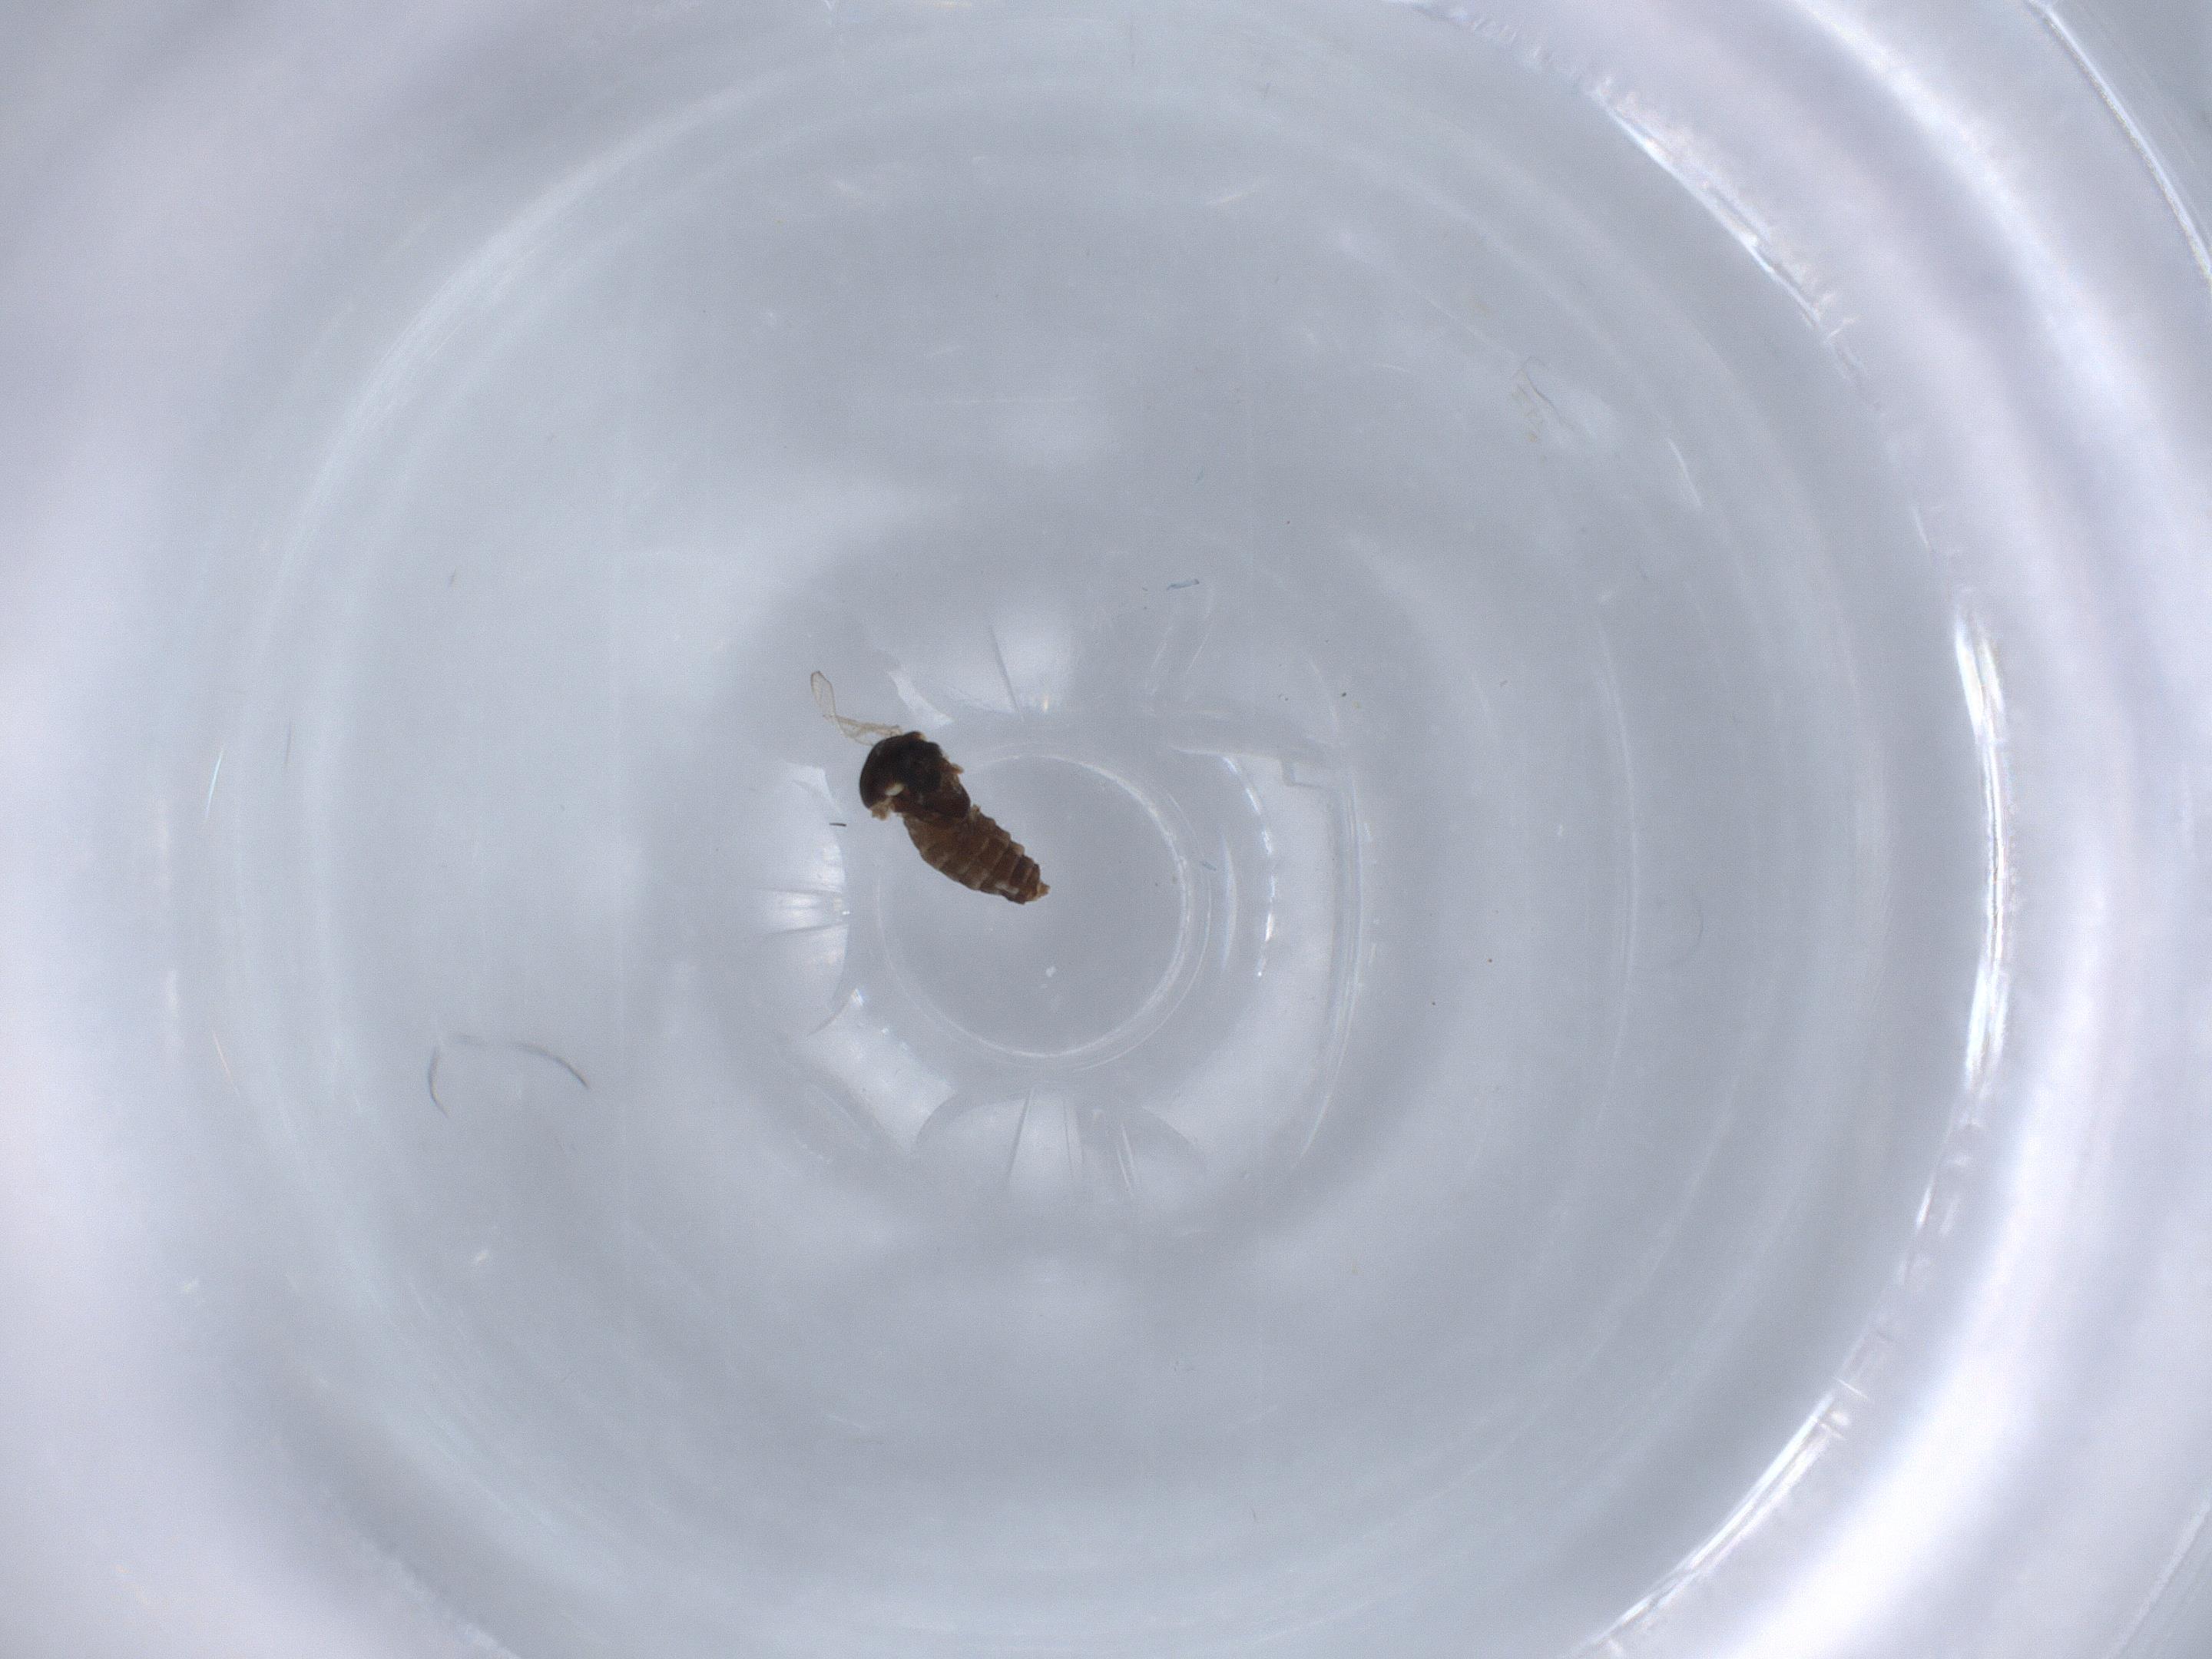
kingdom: Animalia
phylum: Arthropoda
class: Insecta
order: Diptera
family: Ceratopogonidae
